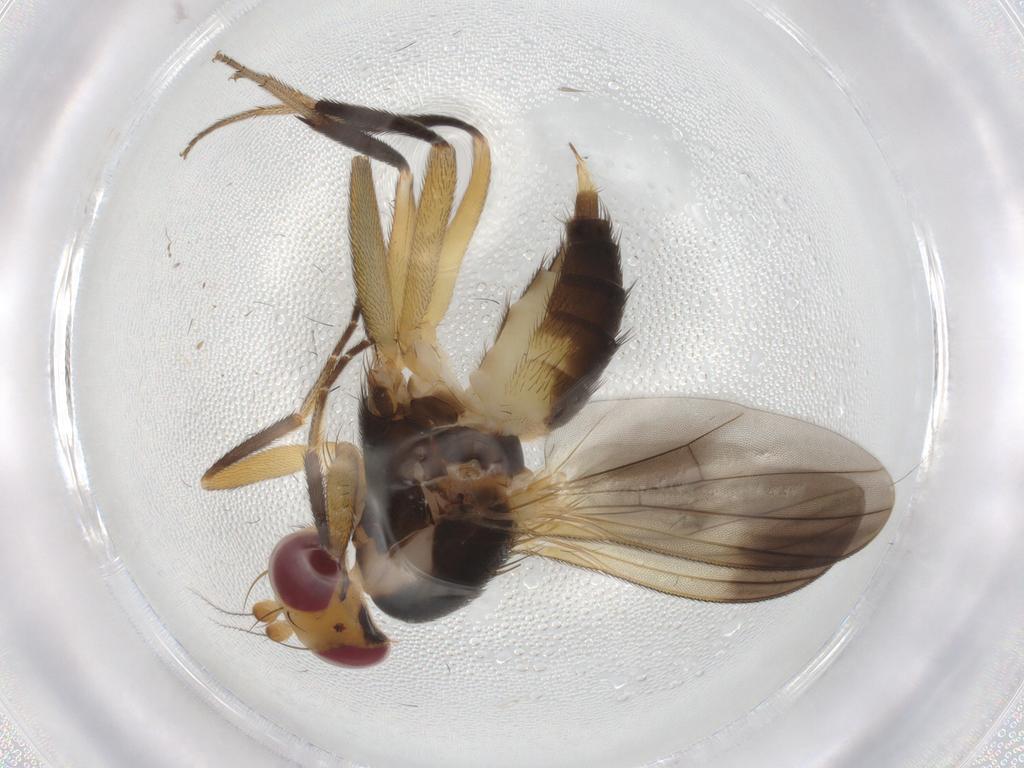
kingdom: Animalia
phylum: Arthropoda
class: Insecta
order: Diptera
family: Clusiidae
